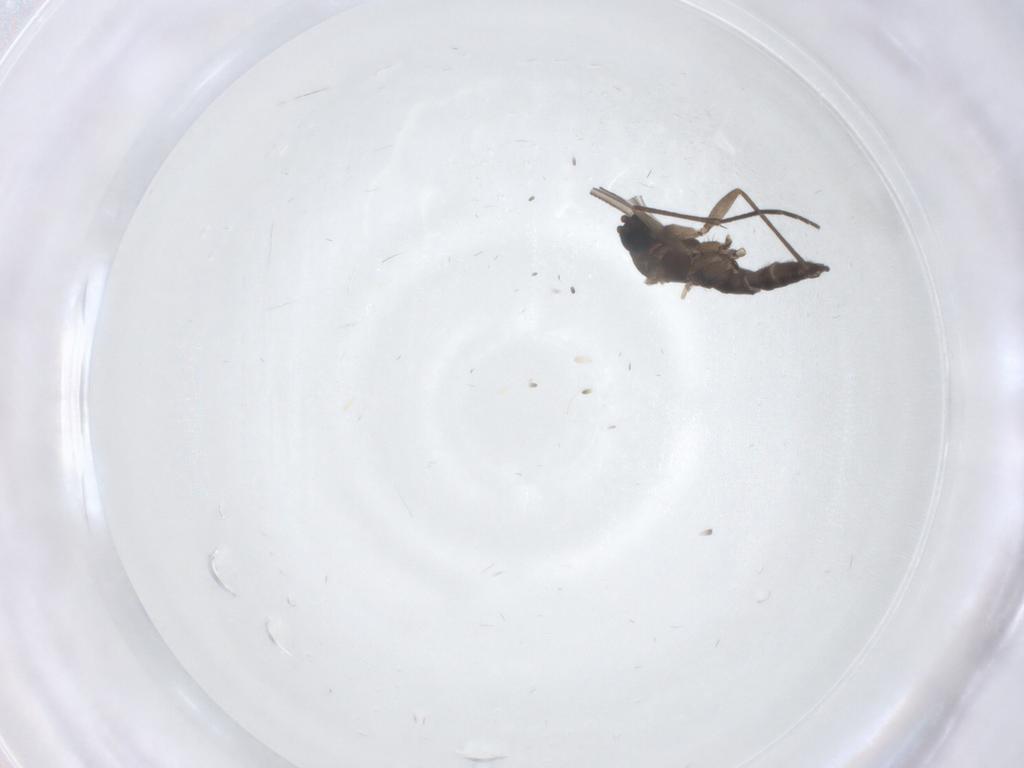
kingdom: Animalia
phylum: Arthropoda
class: Insecta
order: Diptera
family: Sciaridae
